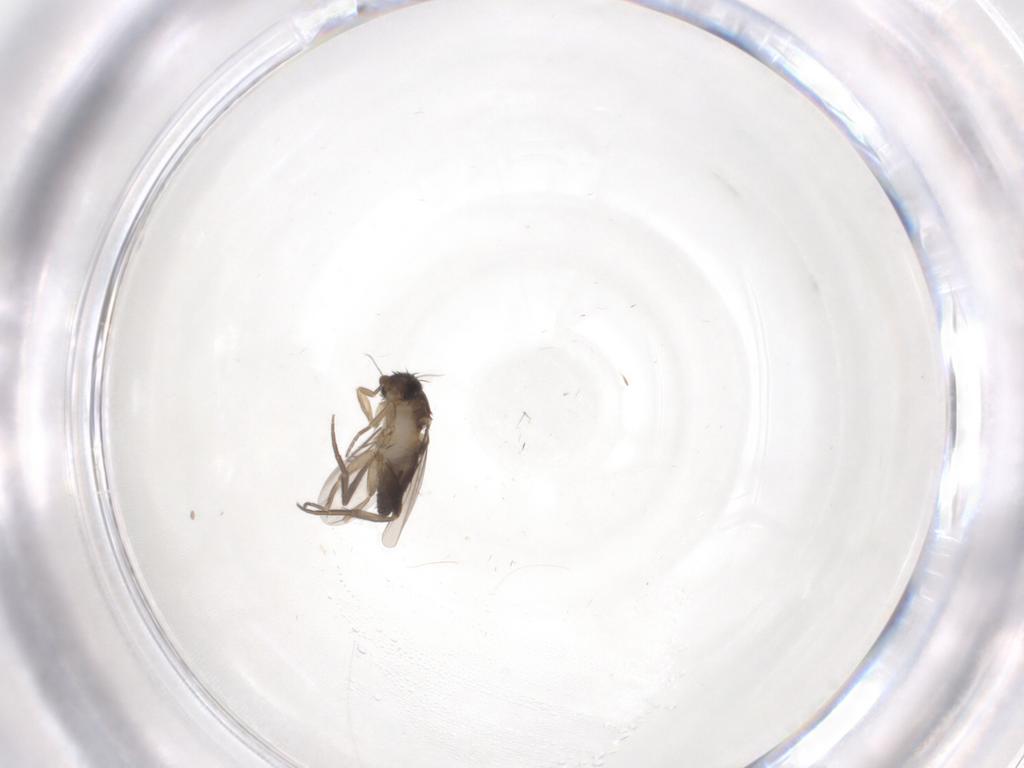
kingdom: Animalia
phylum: Arthropoda
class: Insecta
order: Diptera
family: Phoridae
